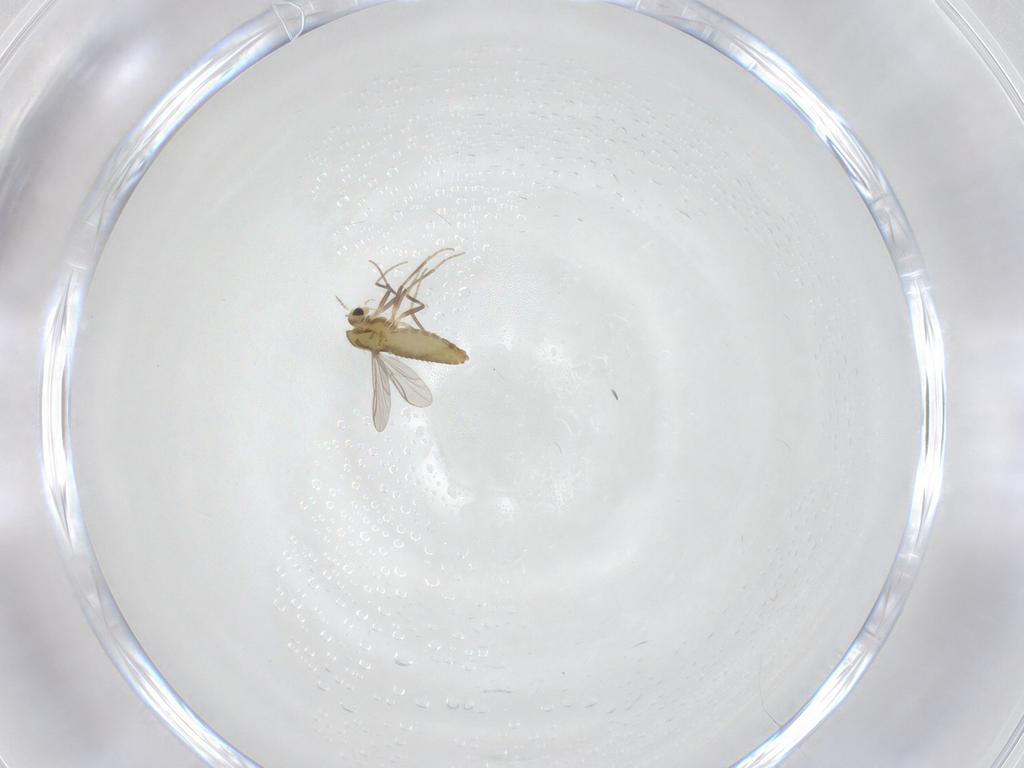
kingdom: Animalia
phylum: Arthropoda
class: Insecta
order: Diptera
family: Chironomidae
